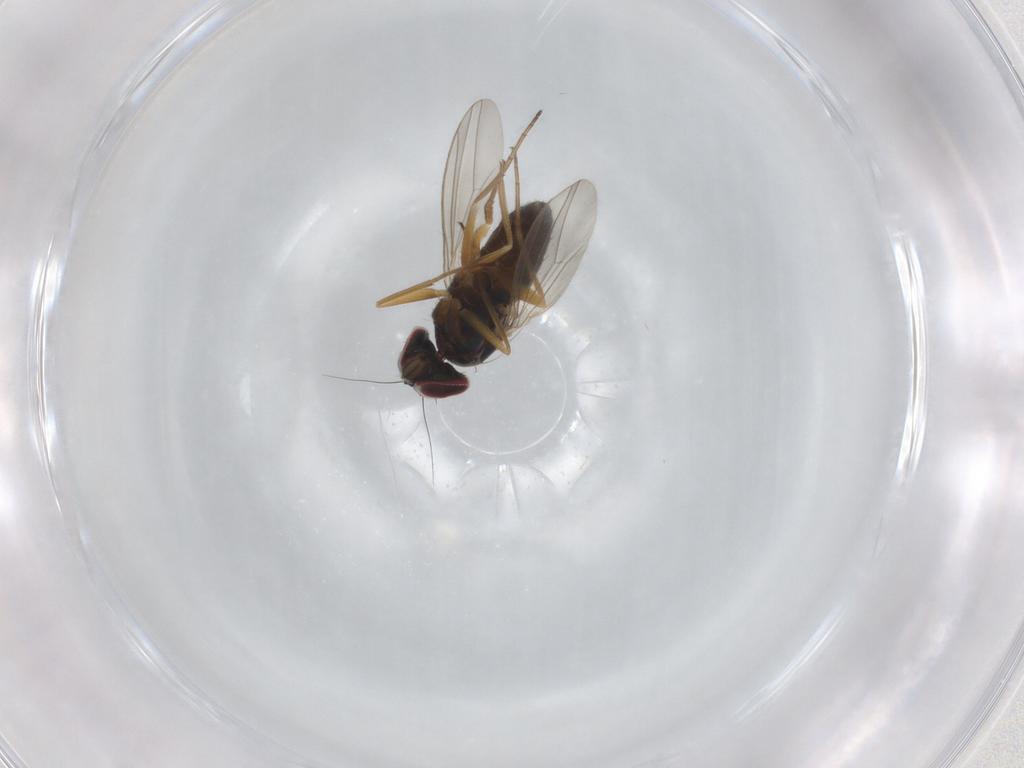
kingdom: Animalia
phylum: Arthropoda
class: Insecta
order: Diptera
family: Dolichopodidae
